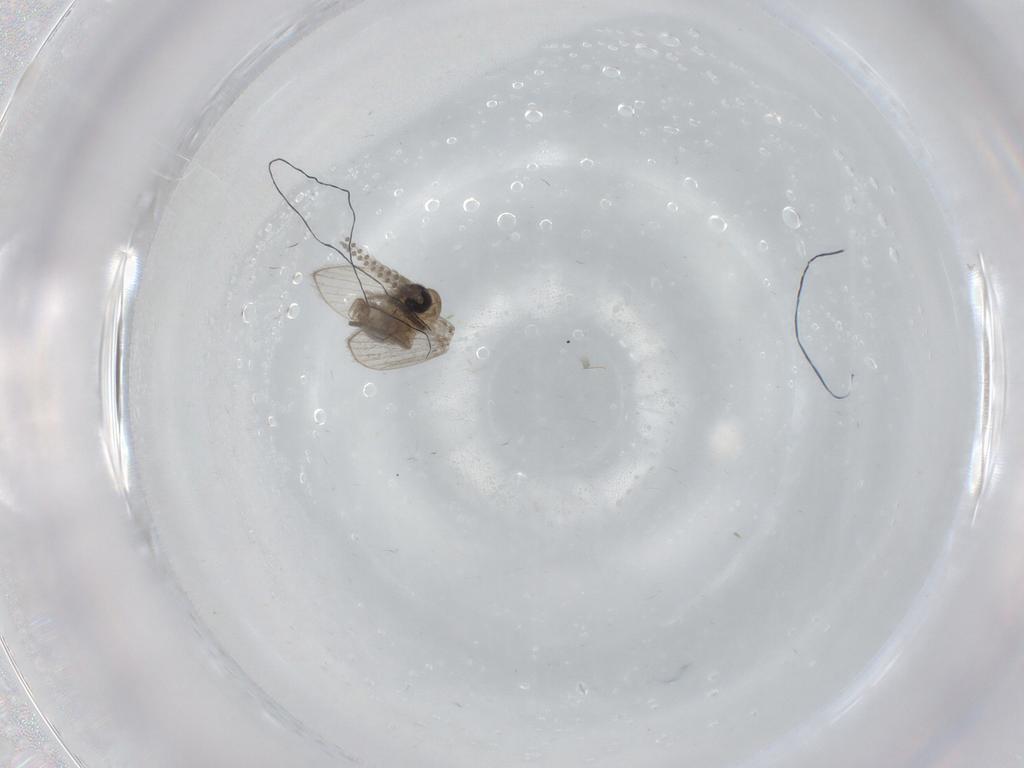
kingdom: Animalia
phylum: Arthropoda
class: Insecta
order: Diptera
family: Psychodidae
